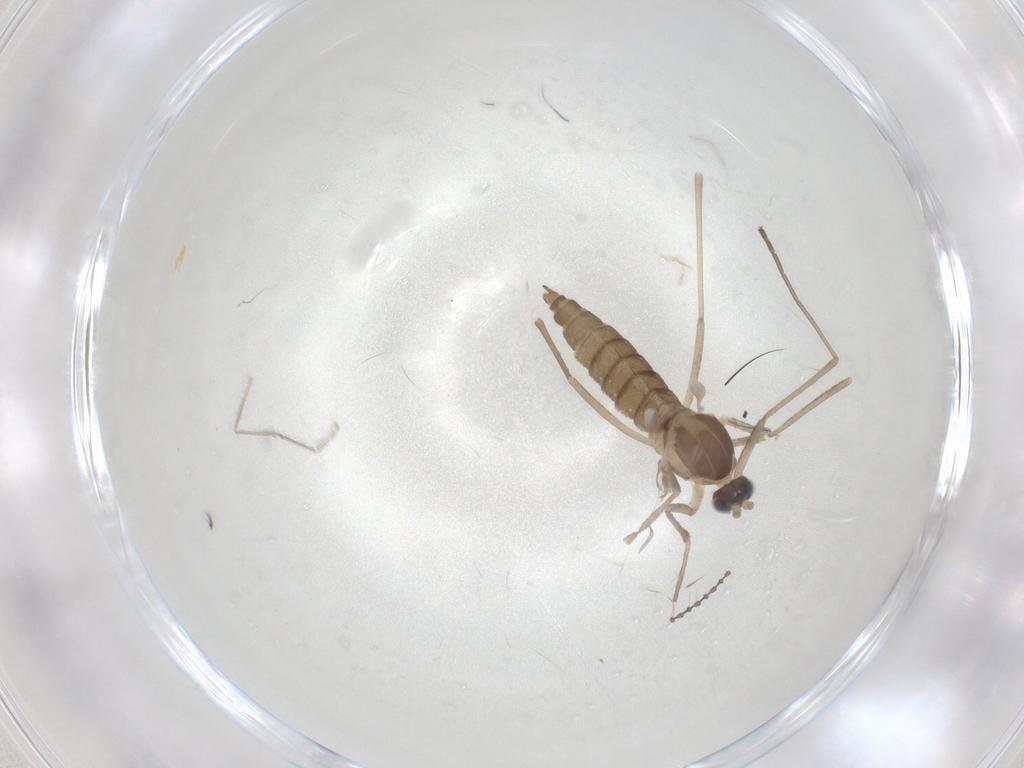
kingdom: Animalia
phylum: Arthropoda
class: Insecta
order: Diptera
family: Cecidomyiidae
